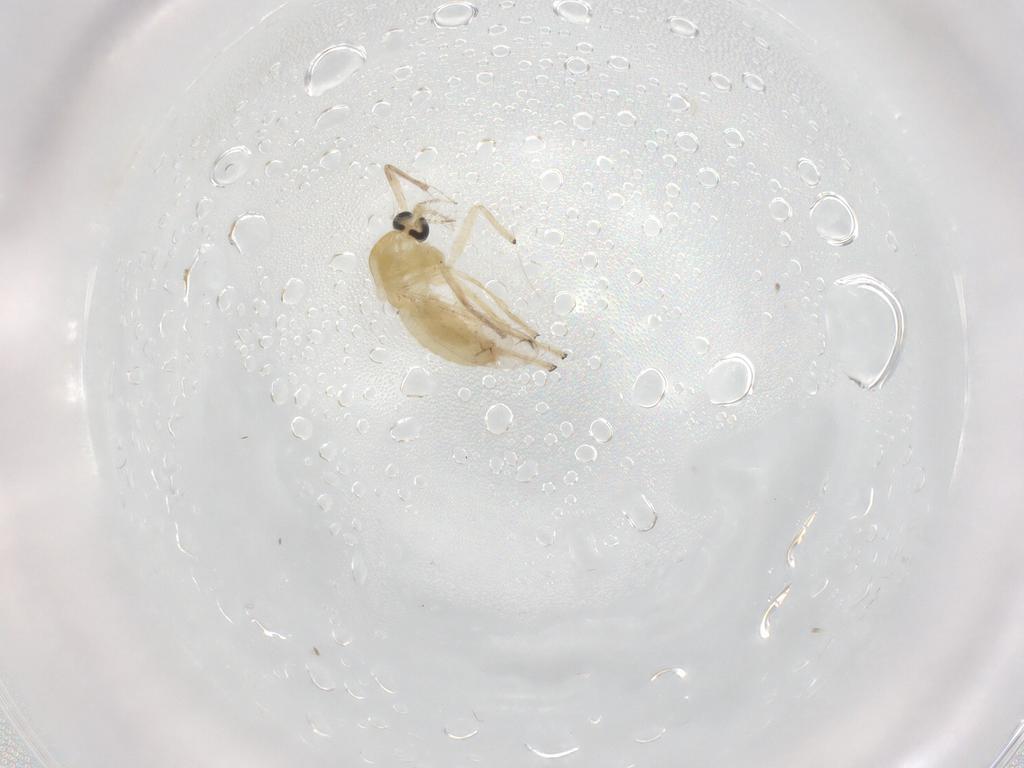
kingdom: Animalia
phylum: Arthropoda
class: Insecta
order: Diptera
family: Chironomidae
